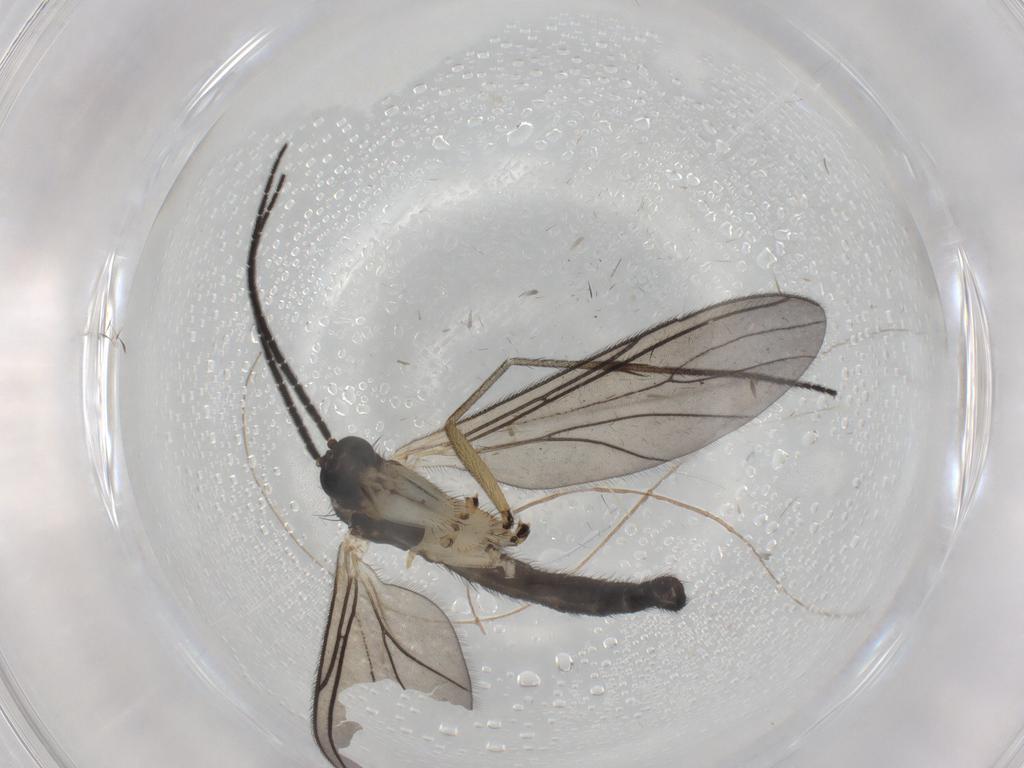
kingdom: Animalia
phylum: Arthropoda
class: Insecta
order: Diptera
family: Sciaridae
